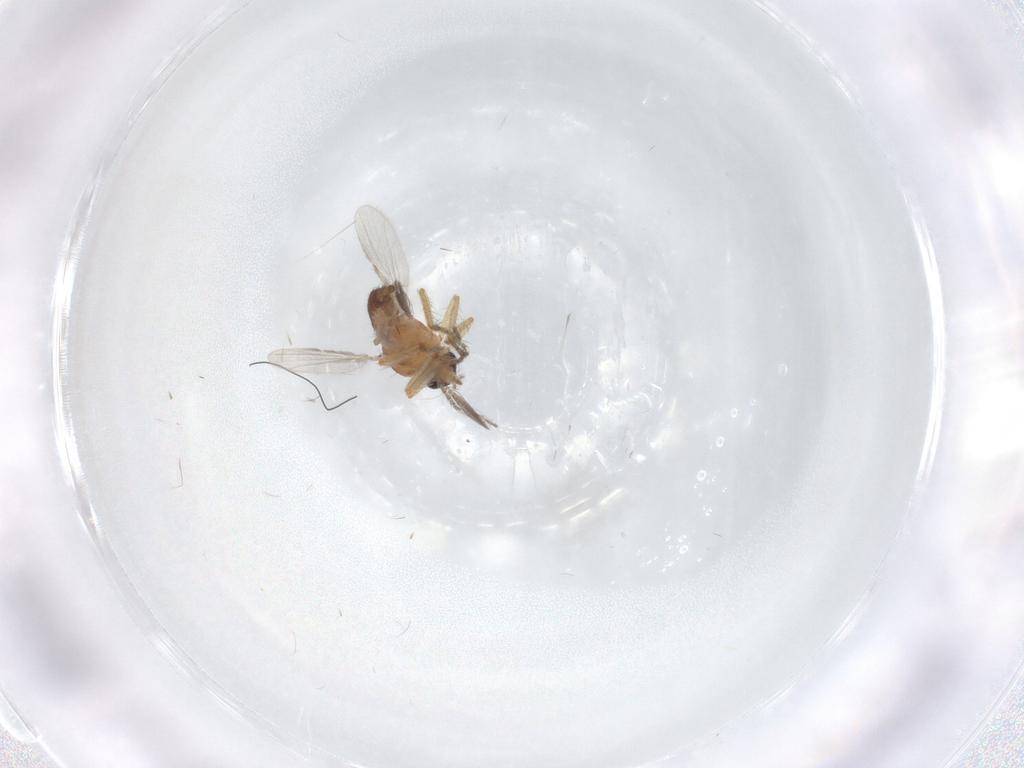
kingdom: Animalia
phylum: Arthropoda
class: Insecta
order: Diptera
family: Ceratopogonidae
